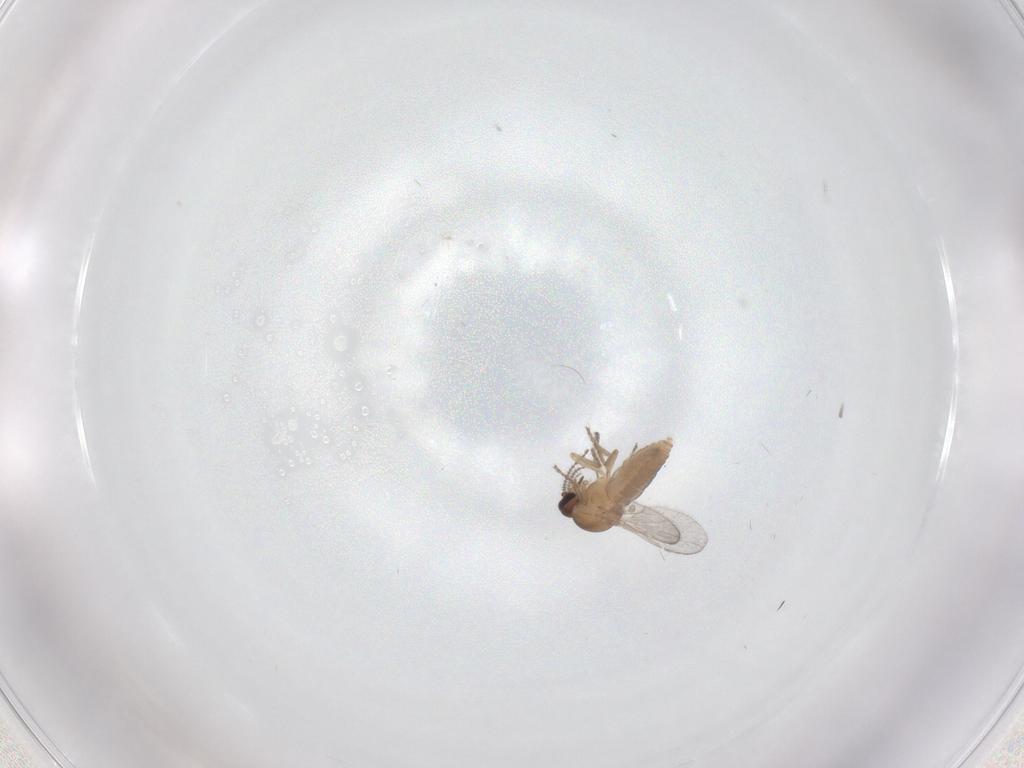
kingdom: Animalia
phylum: Arthropoda
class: Insecta
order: Diptera
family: Ceratopogonidae
